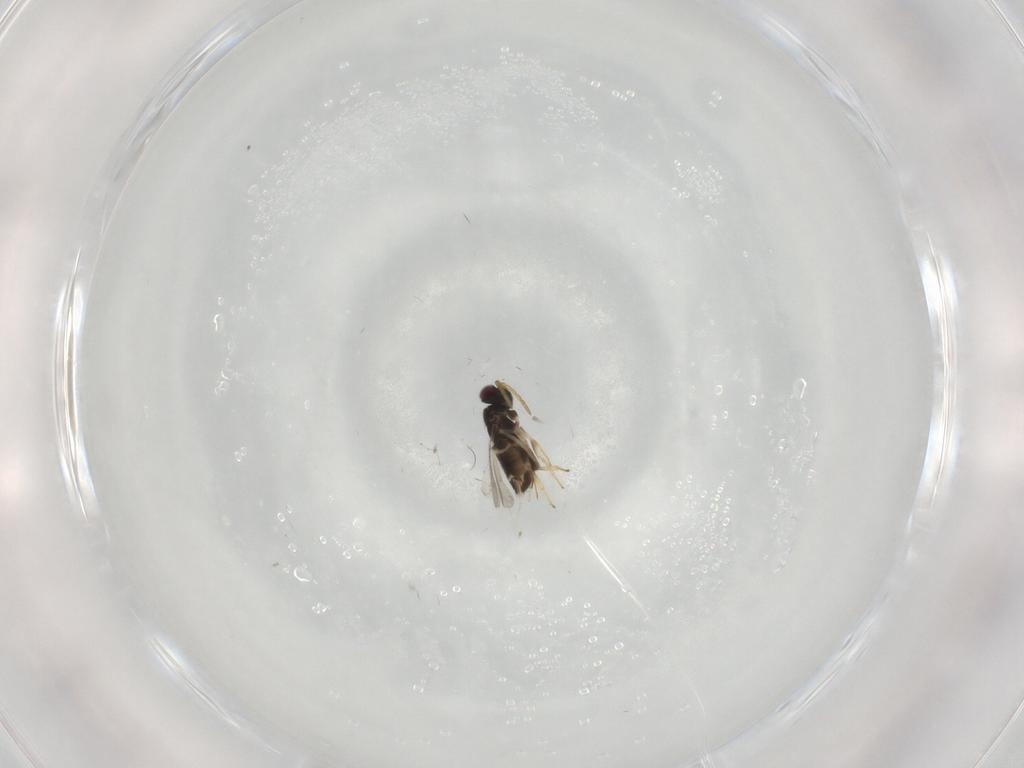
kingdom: Animalia
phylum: Arthropoda
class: Insecta
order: Hymenoptera
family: Aphelinidae
